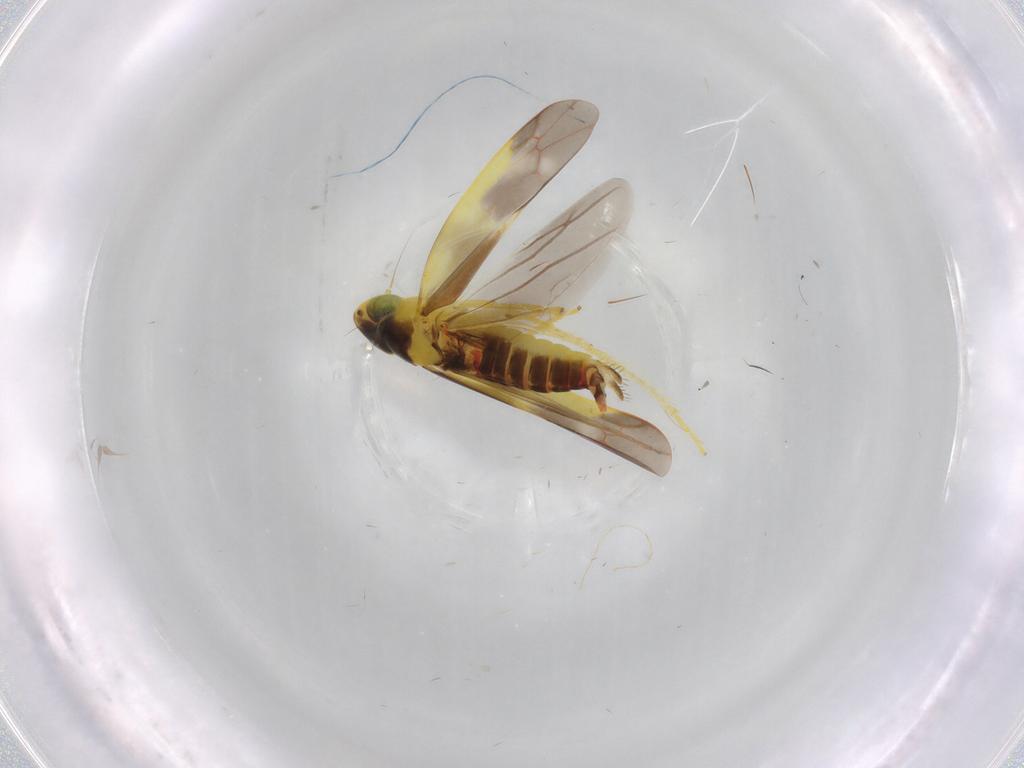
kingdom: Animalia
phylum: Arthropoda
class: Insecta
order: Hemiptera
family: Cicadellidae
